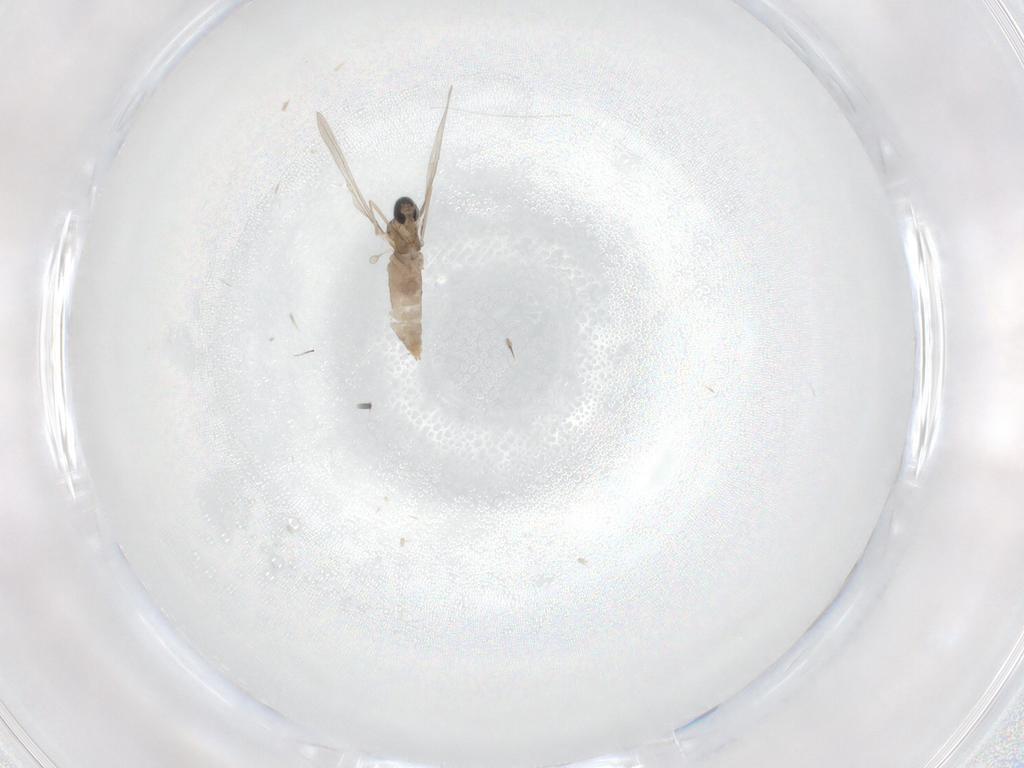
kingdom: Animalia
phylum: Arthropoda
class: Insecta
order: Diptera
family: Cecidomyiidae
